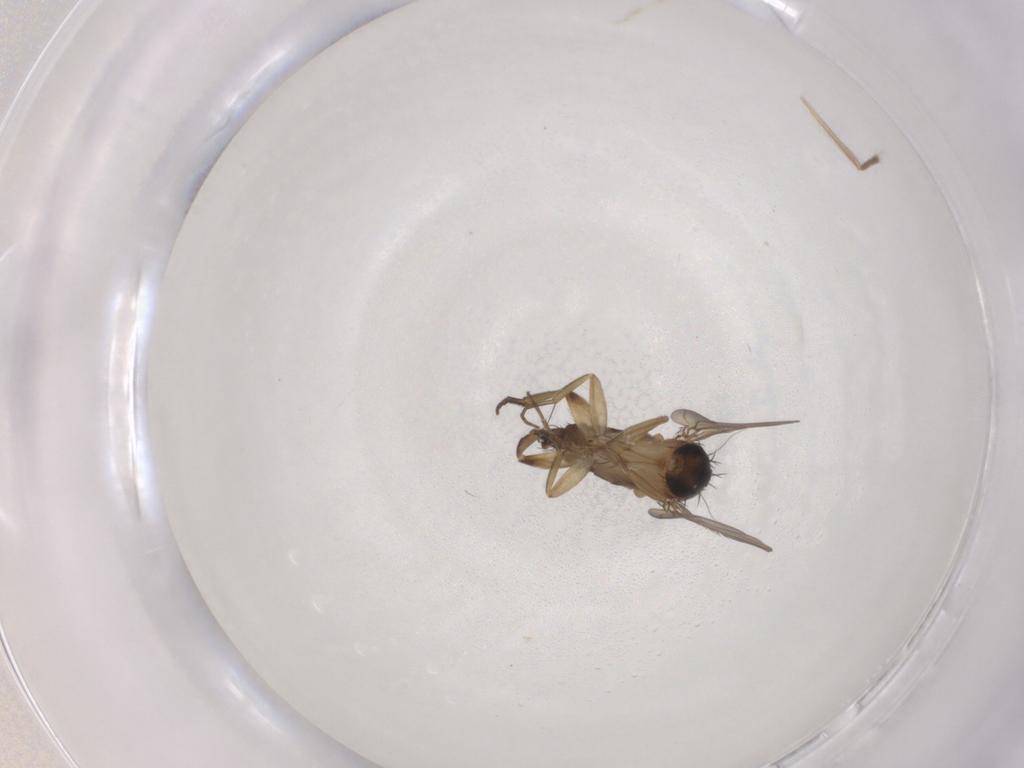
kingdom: Animalia
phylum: Arthropoda
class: Insecta
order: Diptera
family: Phoridae
